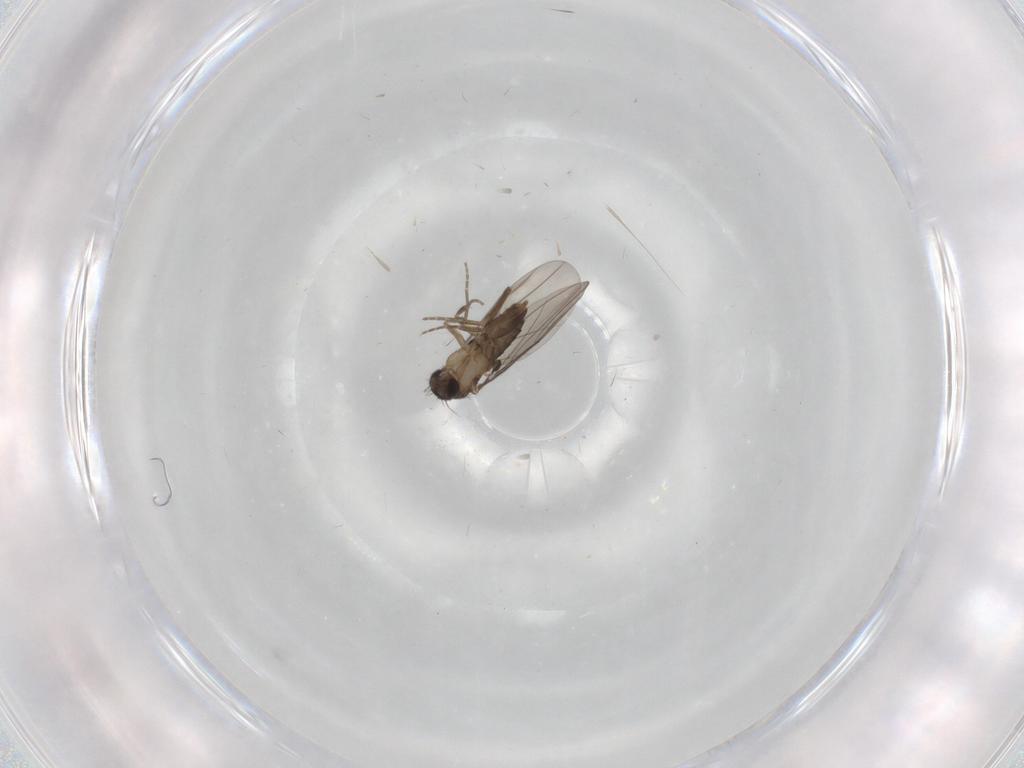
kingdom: Animalia
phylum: Arthropoda
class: Insecta
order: Diptera
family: Phoridae
